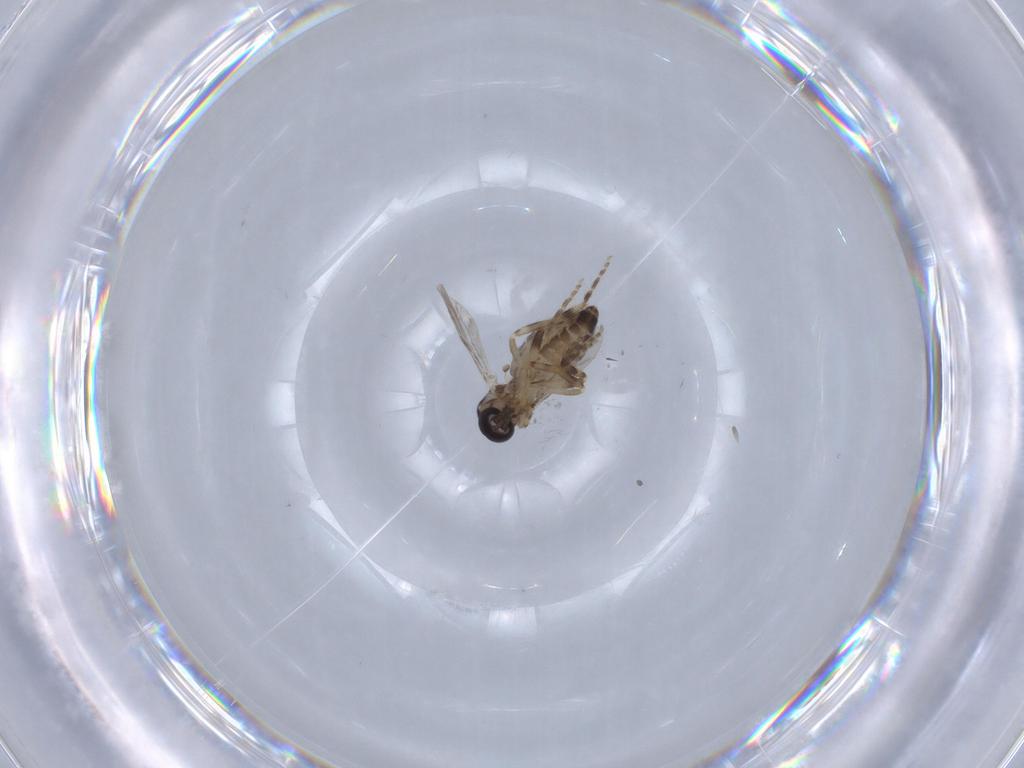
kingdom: Animalia
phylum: Arthropoda
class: Insecta
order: Diptera
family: Ceratopogonidae
